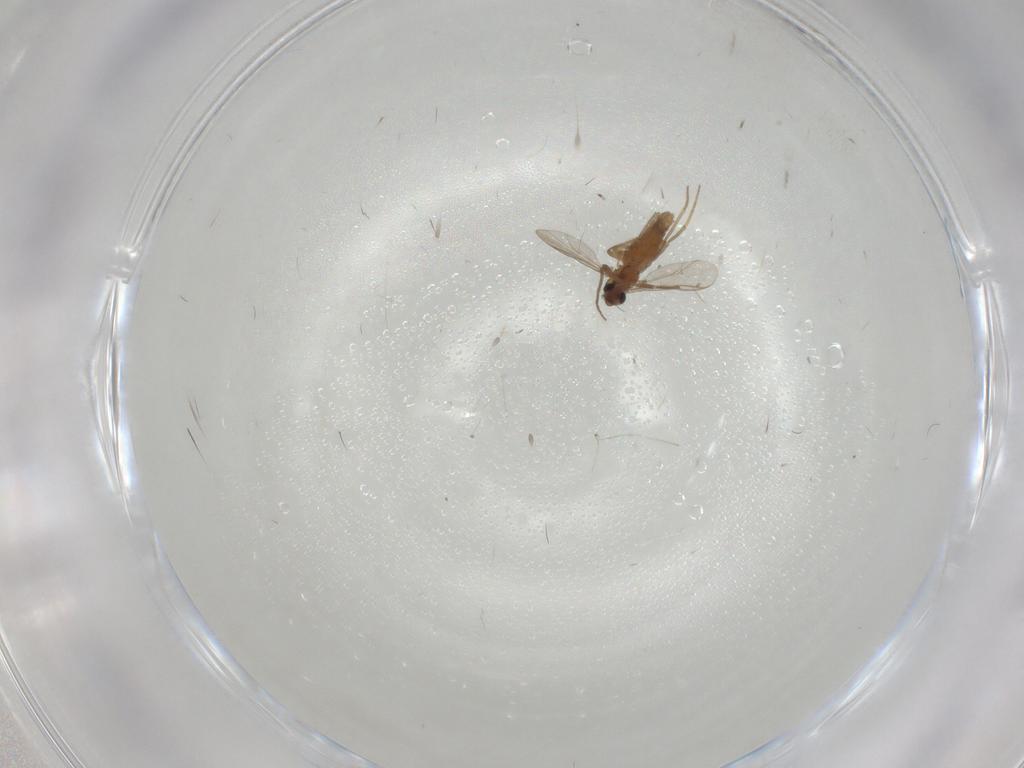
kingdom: Animalia
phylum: Arthropoda
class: Insecta
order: Diptera
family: Chironomidae
